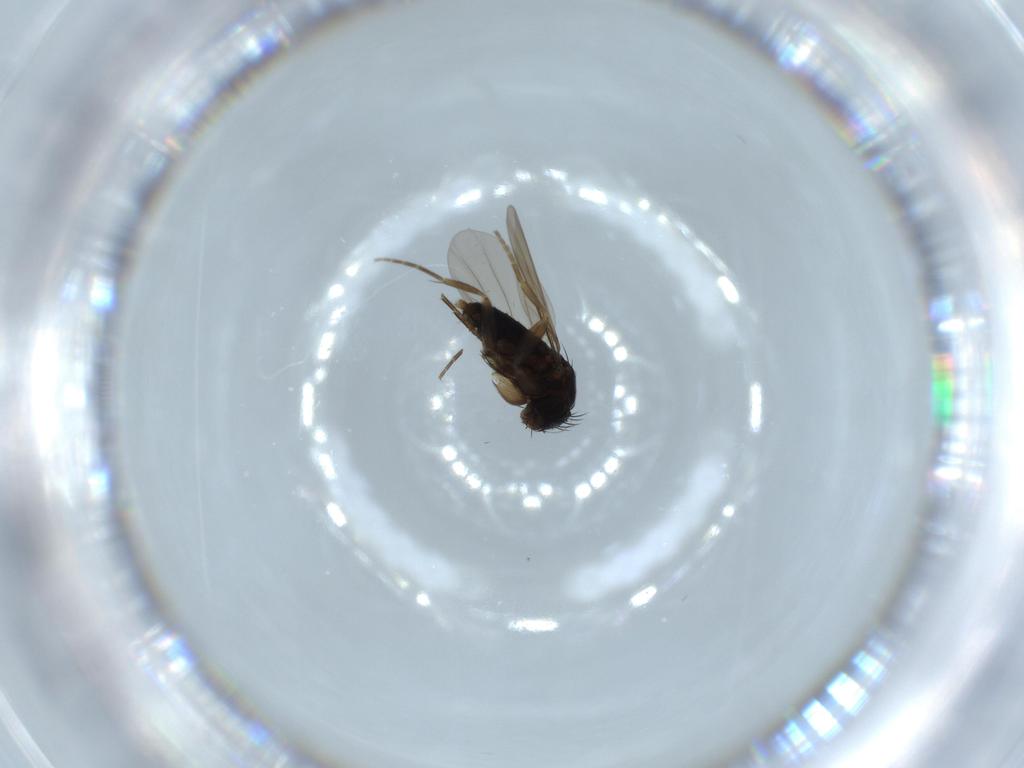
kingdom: Animalia
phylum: Arthropoda
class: Insecta
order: Diptera
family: Phoridae
